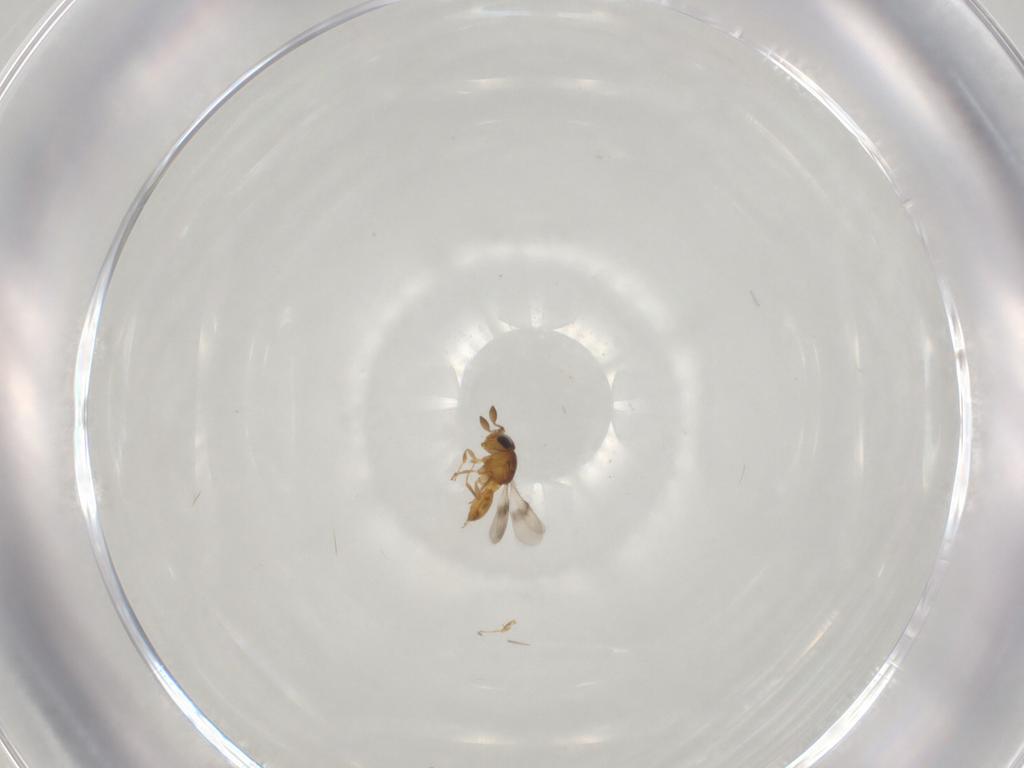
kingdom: Animalia
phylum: Arthropoda
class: Insecta
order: Hymenoptera
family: Scelionidae
